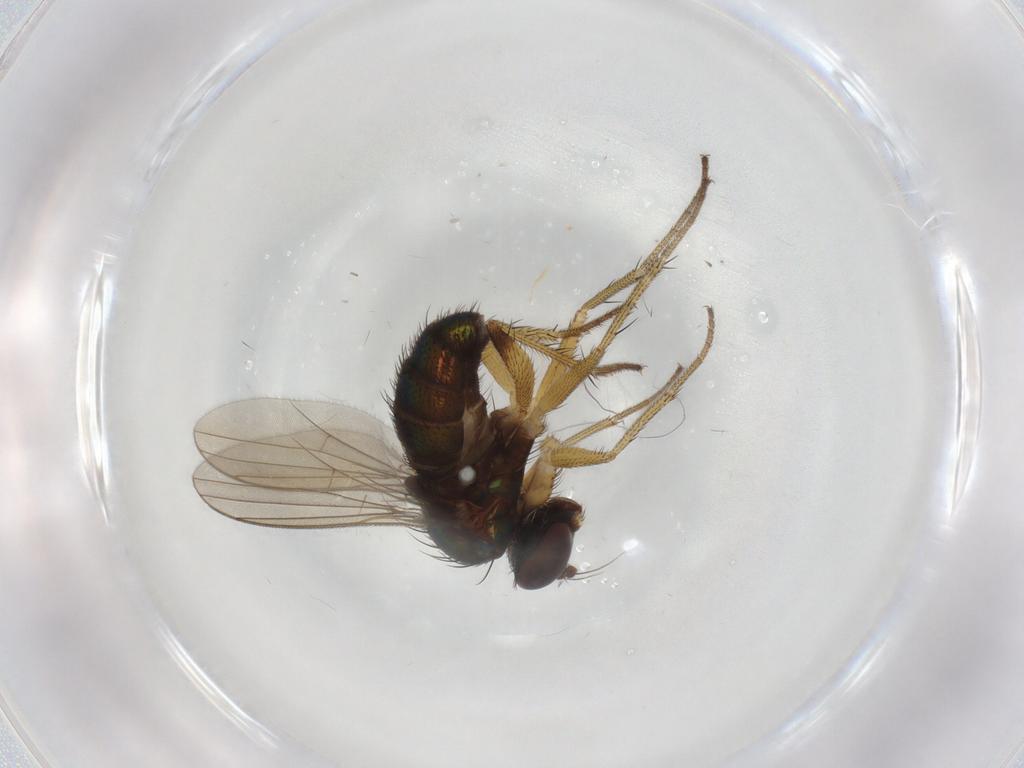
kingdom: Animalia
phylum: Arthropoda
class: Insecta
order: Diptera
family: Dolichopodidae
